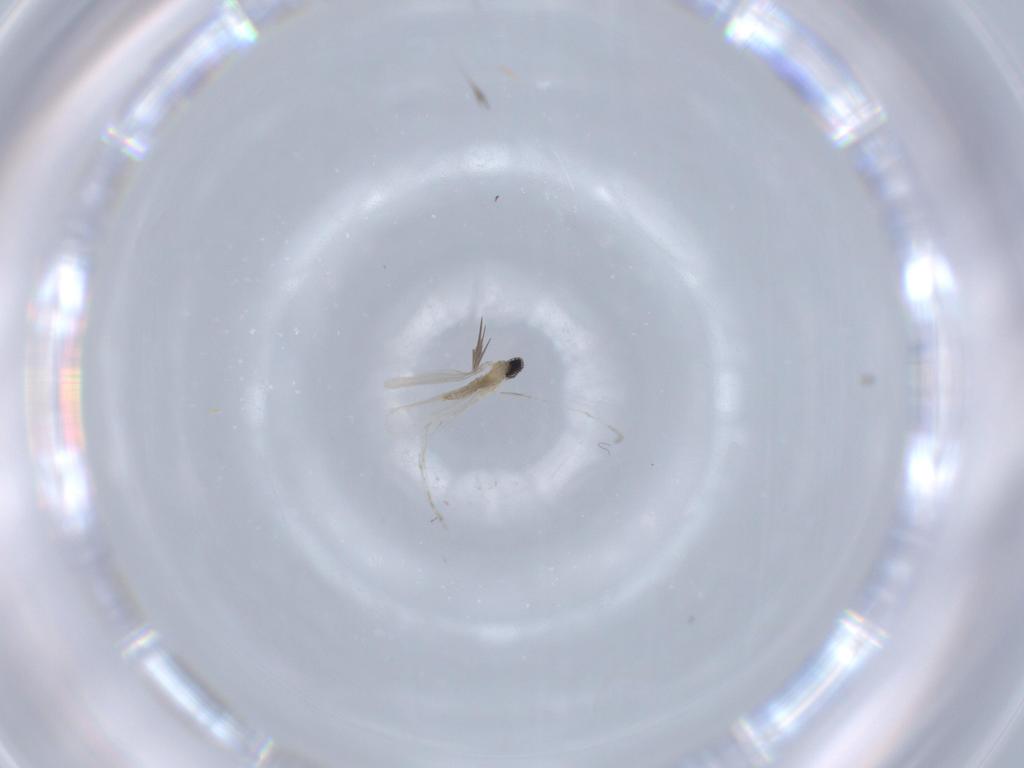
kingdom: Animalia
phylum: Arthropoda
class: Insecta
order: Diptera
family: Cecidomyiidae
